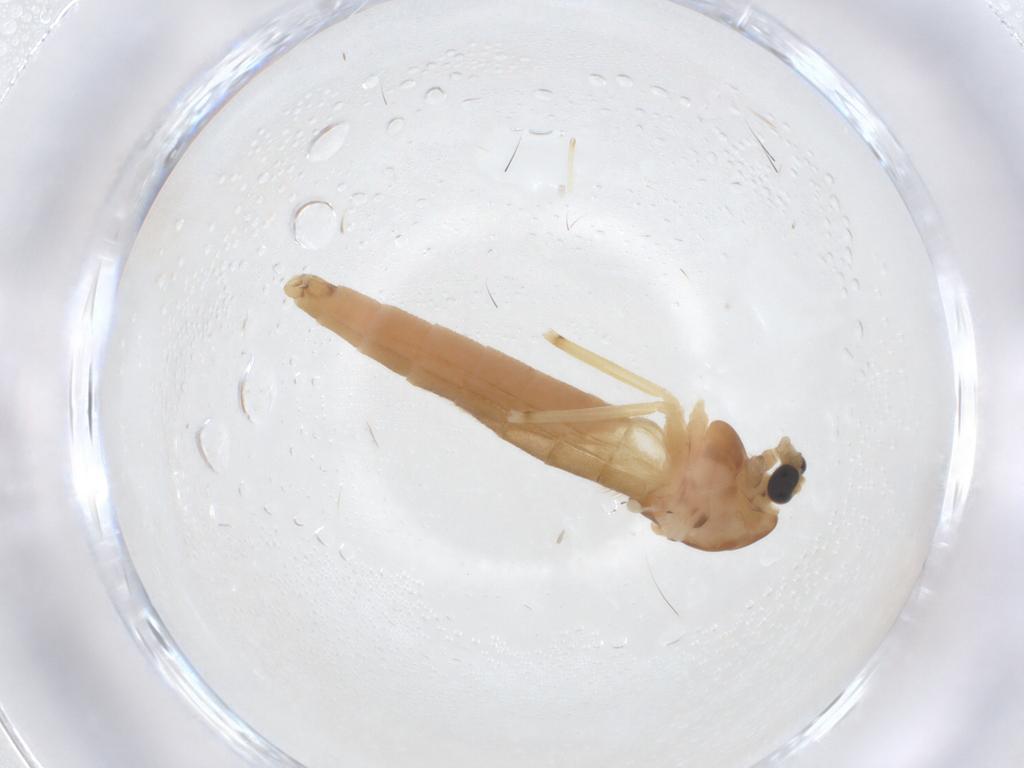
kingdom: Animalia
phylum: Arthropoda
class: Insecta
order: Diptera
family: Chironomidae
